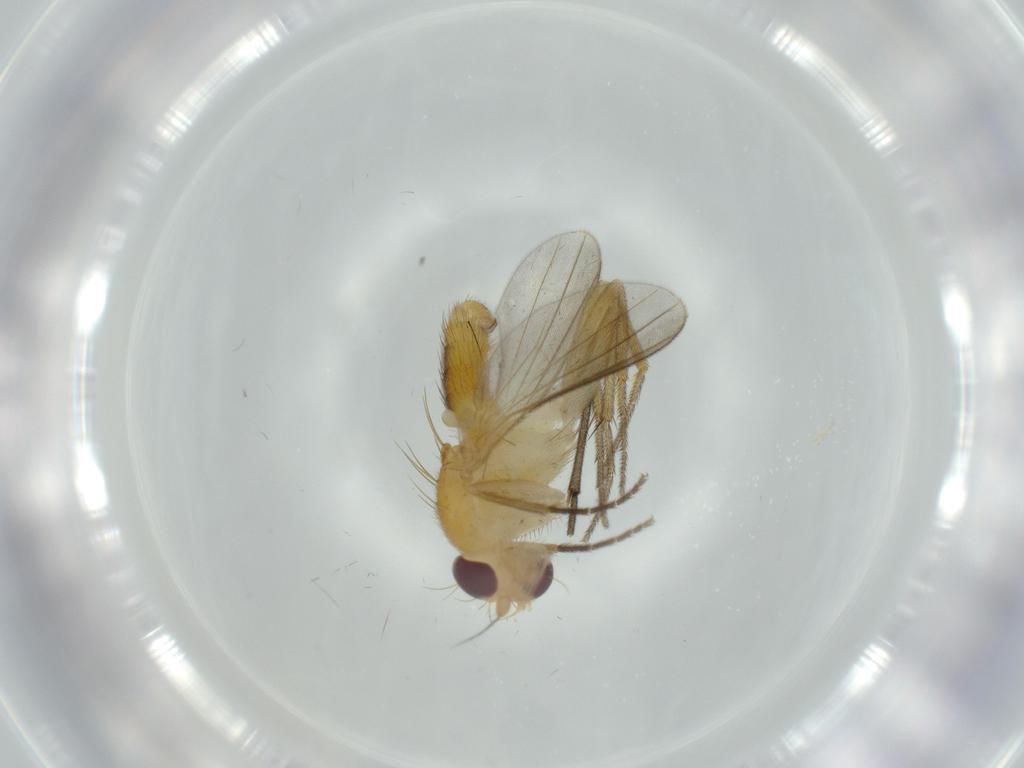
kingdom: Animalia
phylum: Arthropoda
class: Insecta
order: Diptera
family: Clusiidae
